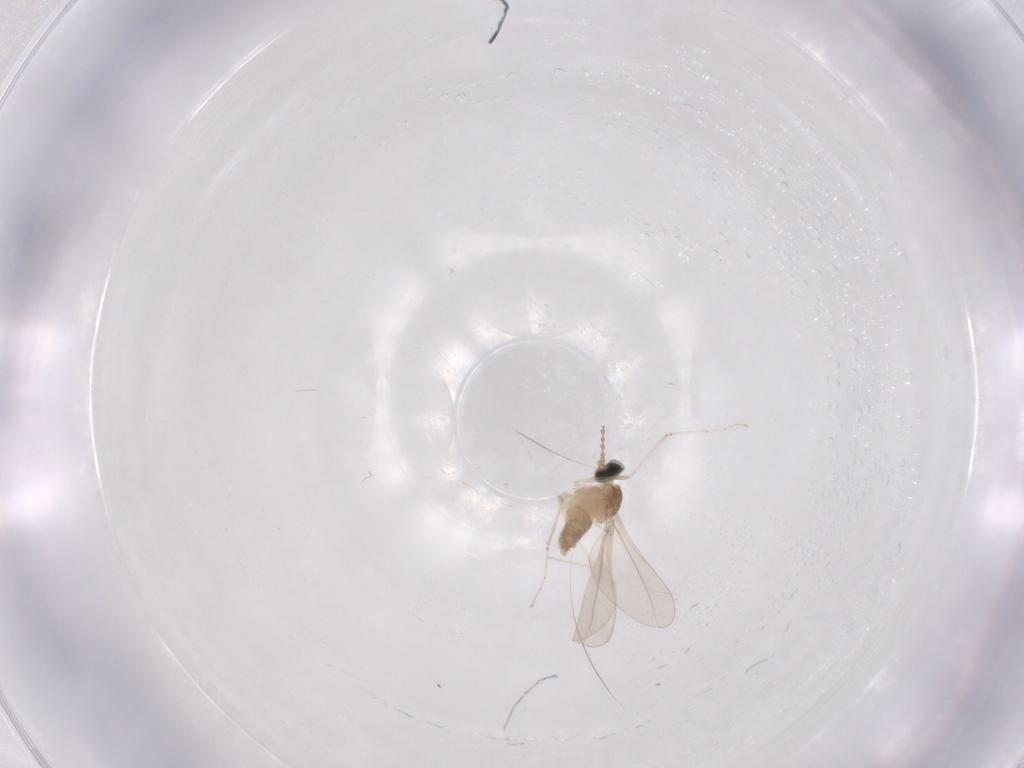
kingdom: Animalia
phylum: Arthropoda
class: Insecta
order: Diptera
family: Cecidomyiidae
